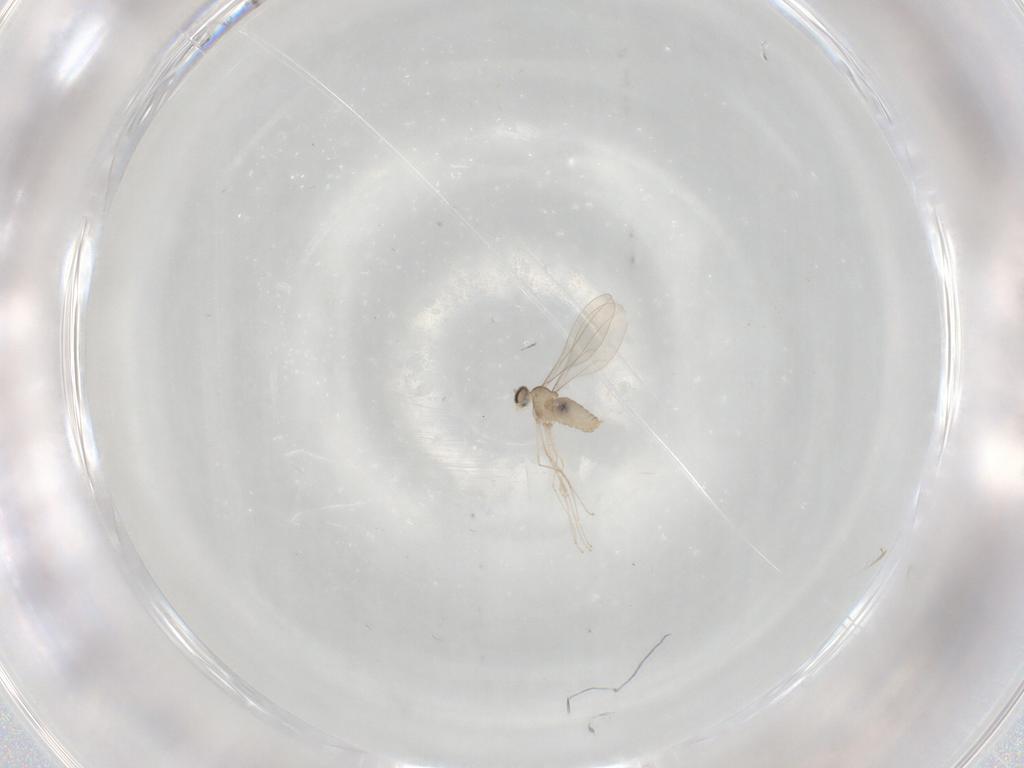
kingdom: Animalia
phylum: Arthropoda
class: Insecta
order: Diptera
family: Cecidomyiidae
